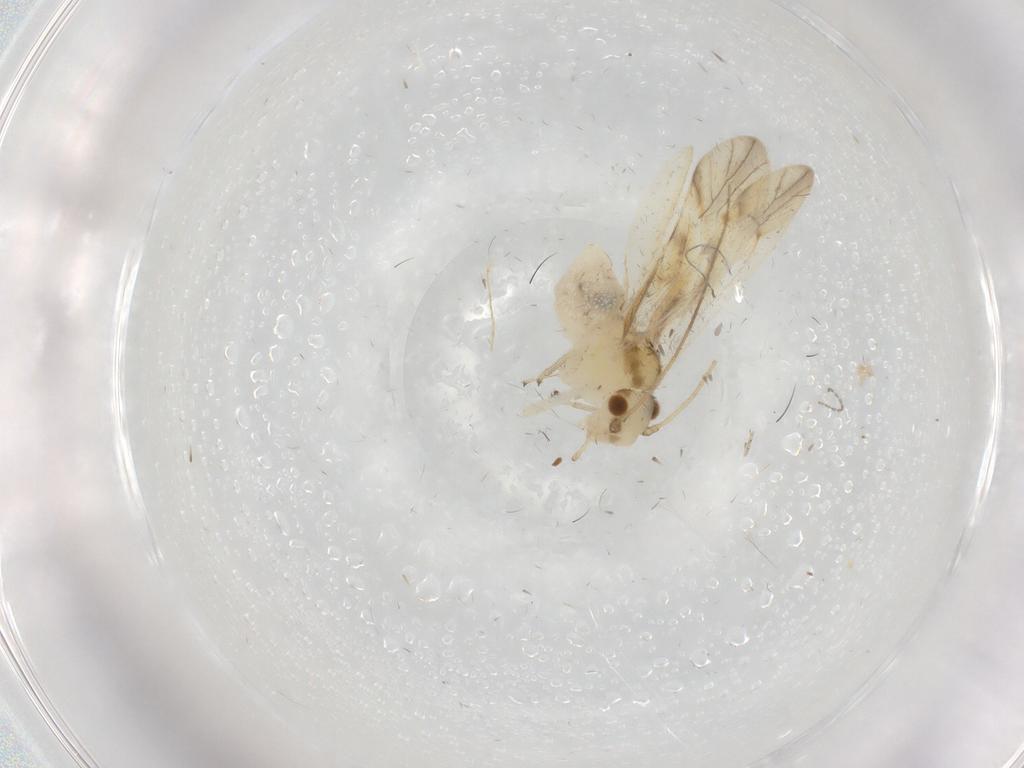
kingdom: Animalia
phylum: Arthropoda
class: Insecta
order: Psocodea
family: Caeciliusidae
